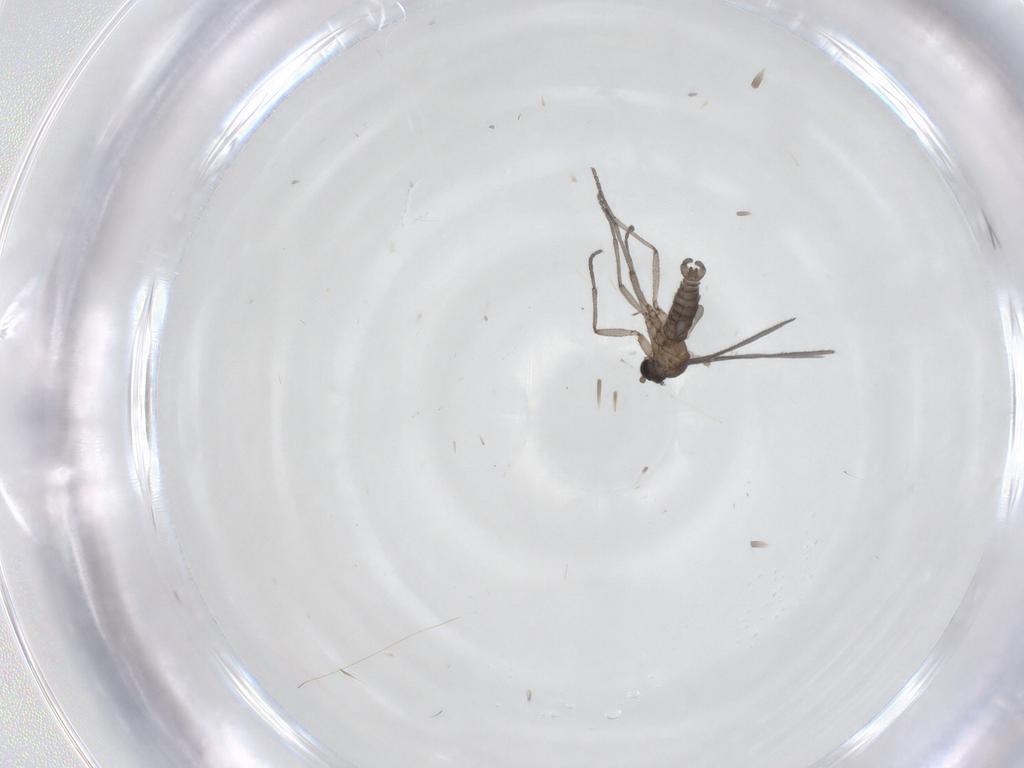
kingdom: Animalia
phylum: Arthropoda
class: Insecta
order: Diptera
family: Sciaridae
